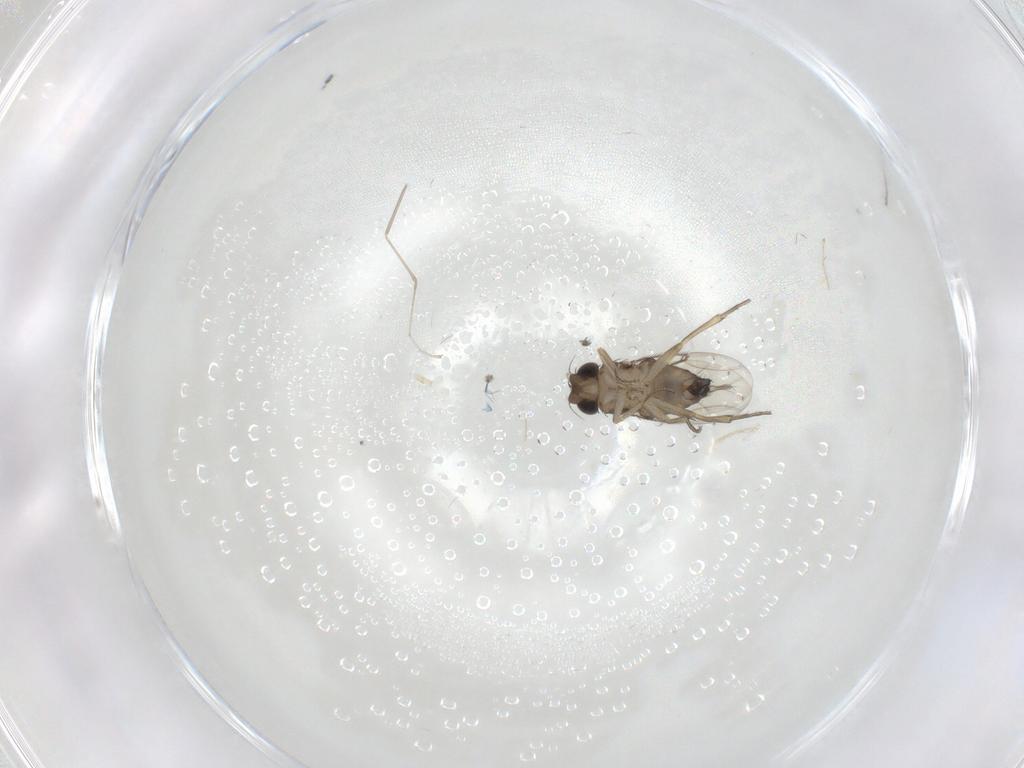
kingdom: Animalia
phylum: Arthropoda
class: Insecta
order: Diptera
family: Cecidomyiidae
